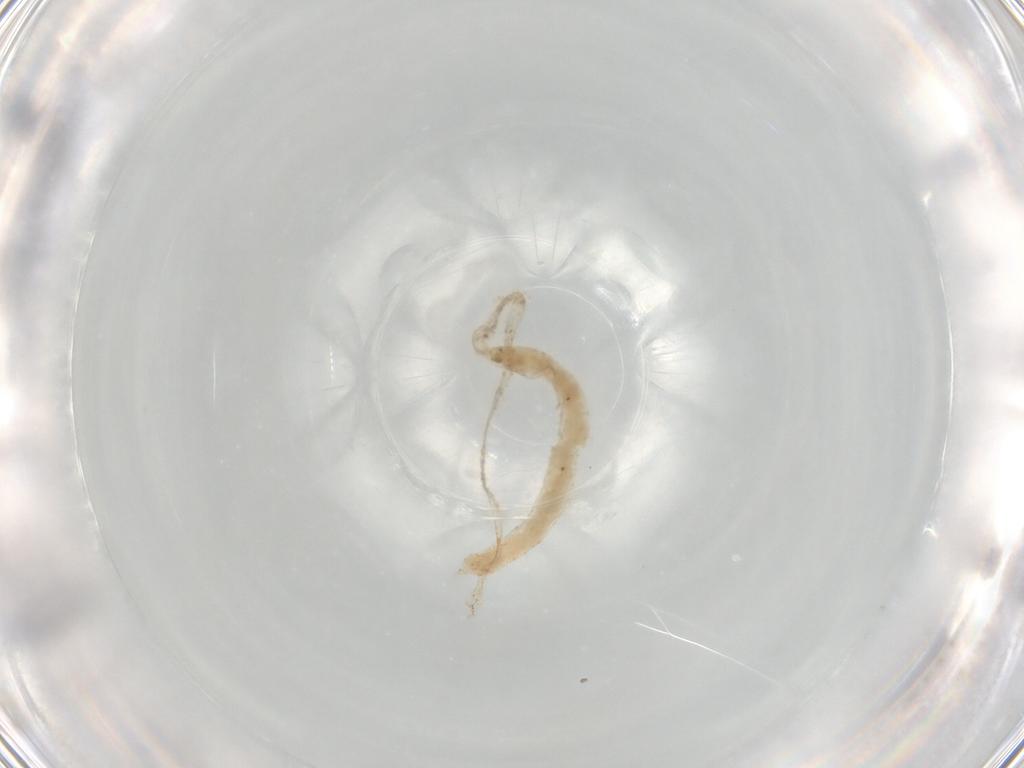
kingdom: Animalia
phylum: Arthropoda
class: Insecta
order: Diptera
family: Chironomidae
